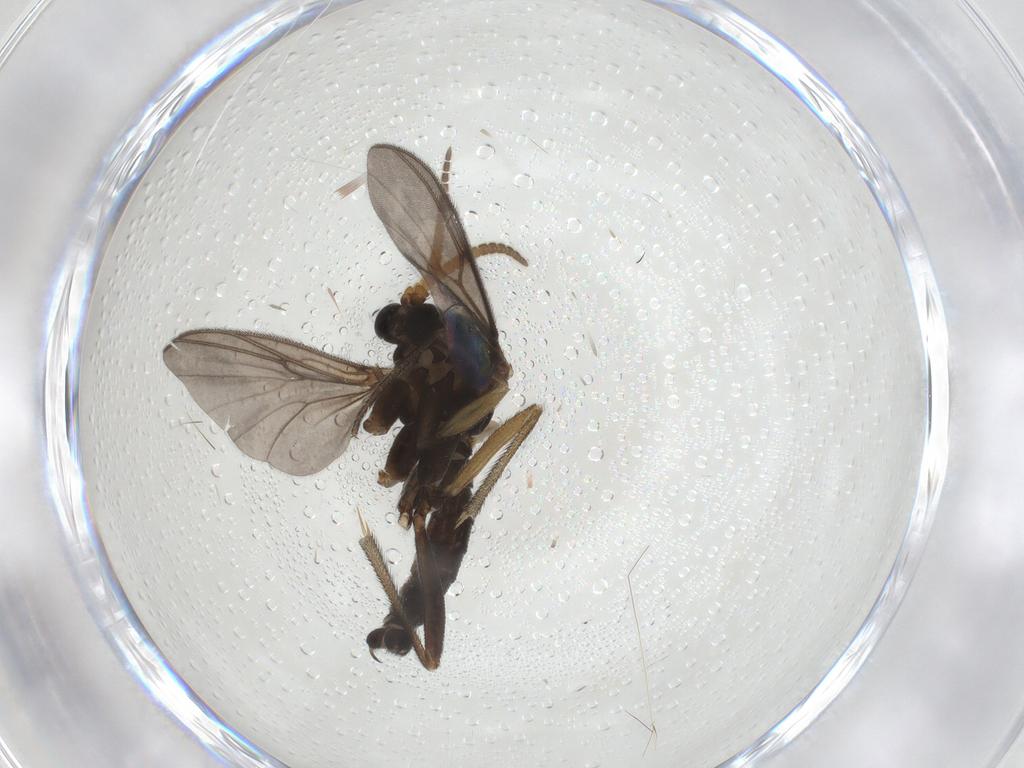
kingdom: Animalia
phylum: Arthropoda
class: Insecta
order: Diptera
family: Mycetophilidae
